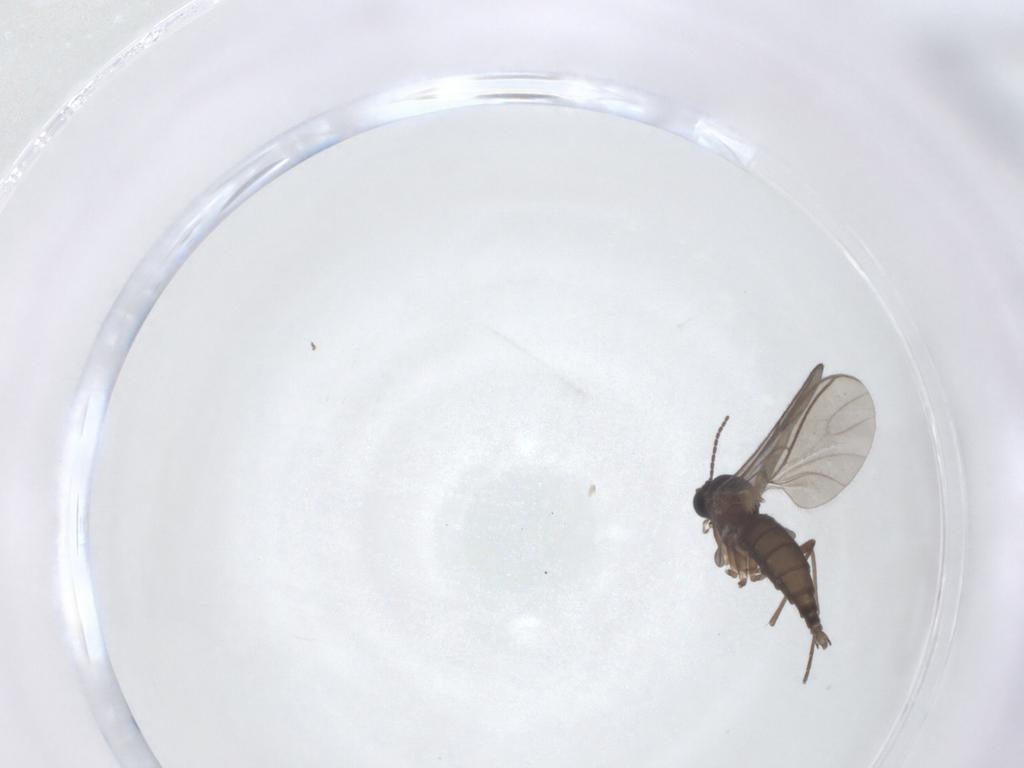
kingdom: Animalia
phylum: Arthropoda
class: Insecta
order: Diptera
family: Sciaridae
